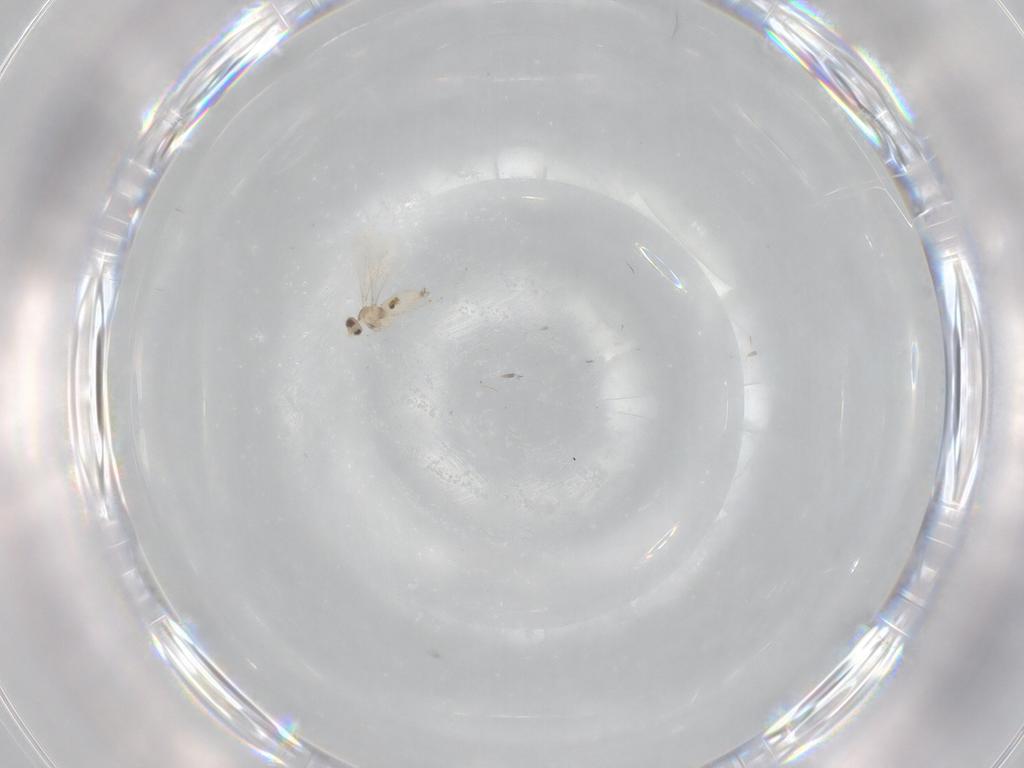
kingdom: Animalia
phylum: Arthropoda
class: Insecta
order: Diptera
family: Cecidomyiidae
